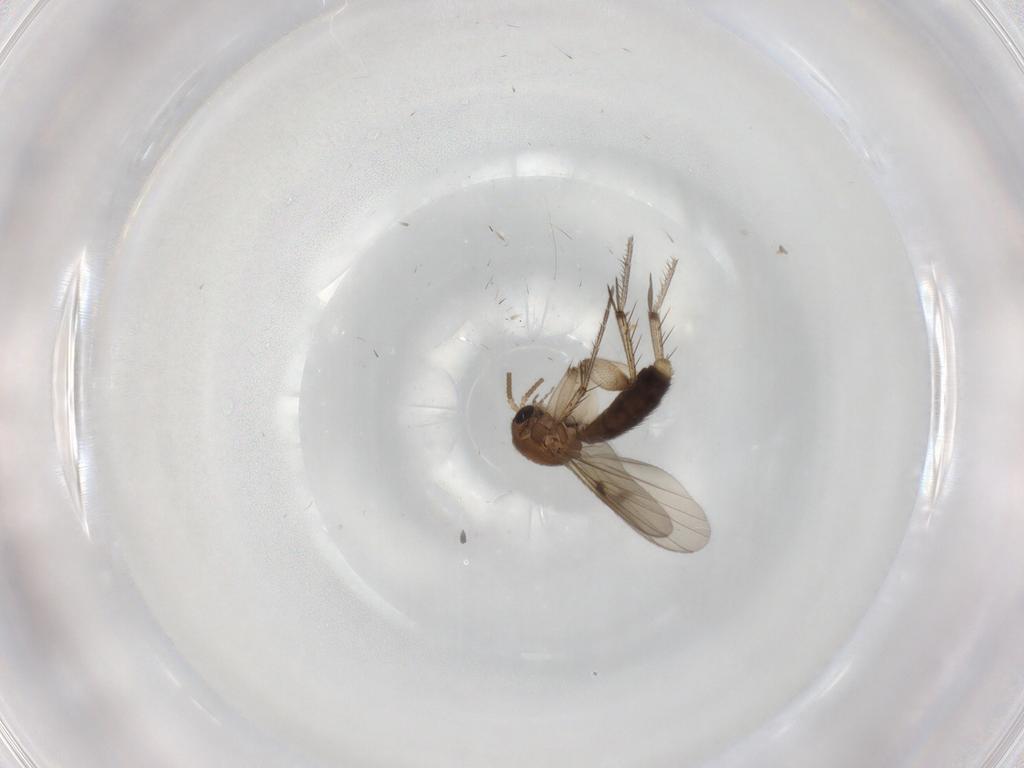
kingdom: Animalia
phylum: Arthropoda
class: Insecta
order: Diptera
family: Mycetophilidae
